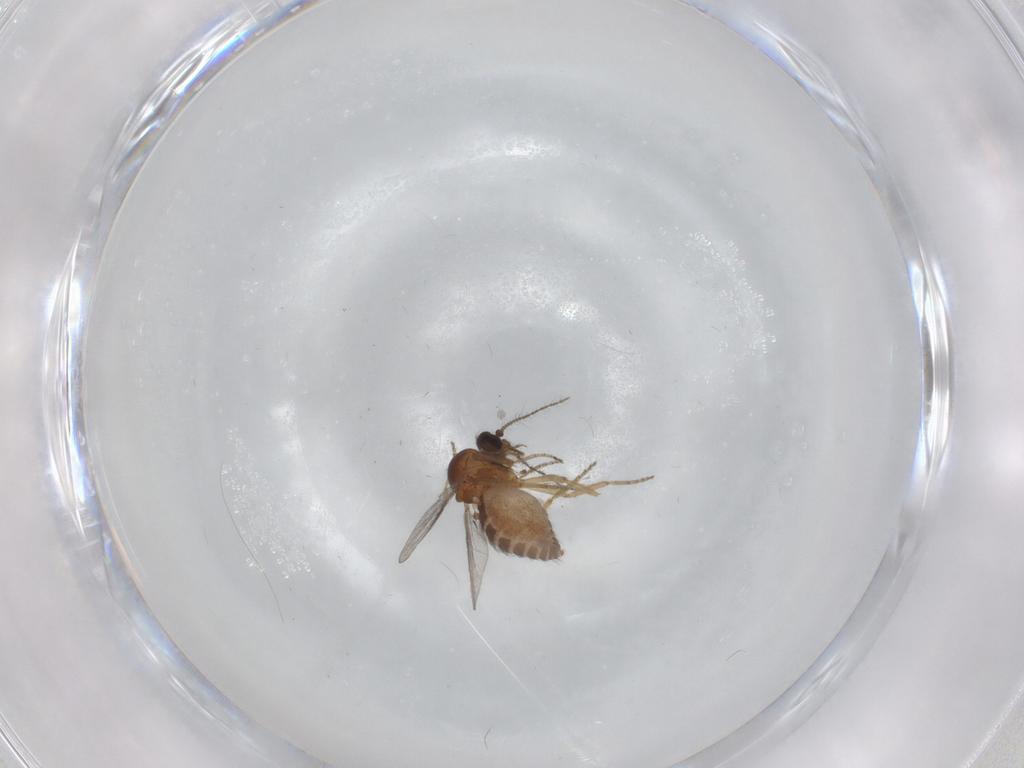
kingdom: Animalia
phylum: Arthropoda
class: Insecta
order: Diptera
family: Ceratopogonidae
